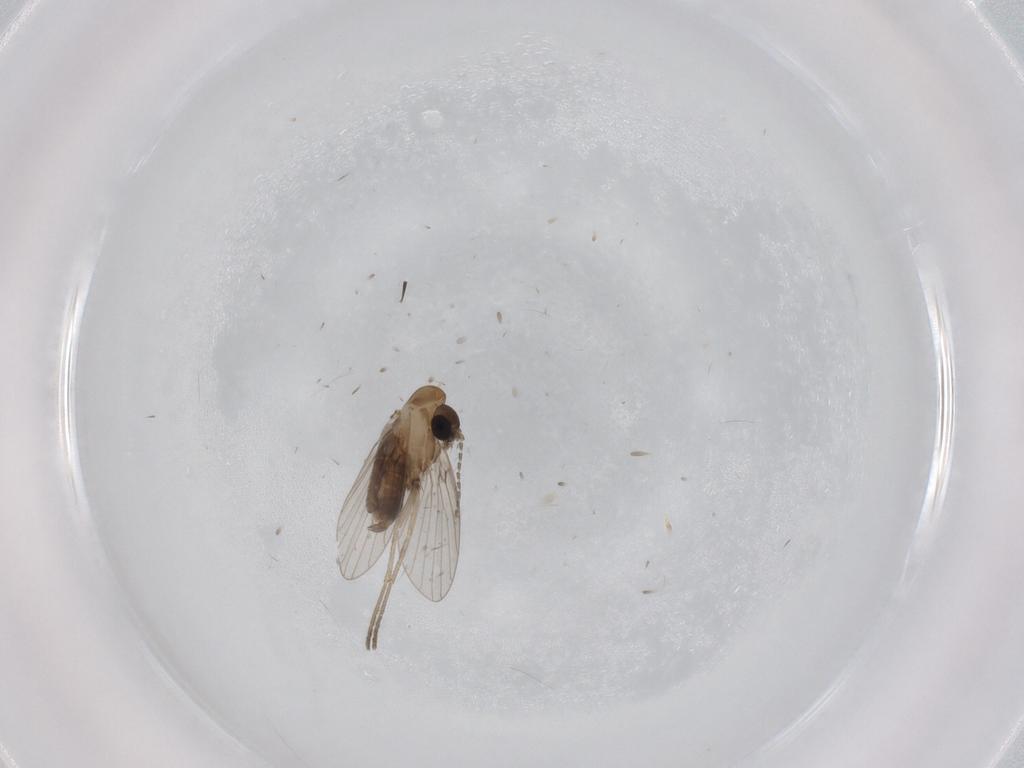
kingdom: Animalia
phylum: Arthropoda
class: Insecta
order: Diptera
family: Psychodidae
